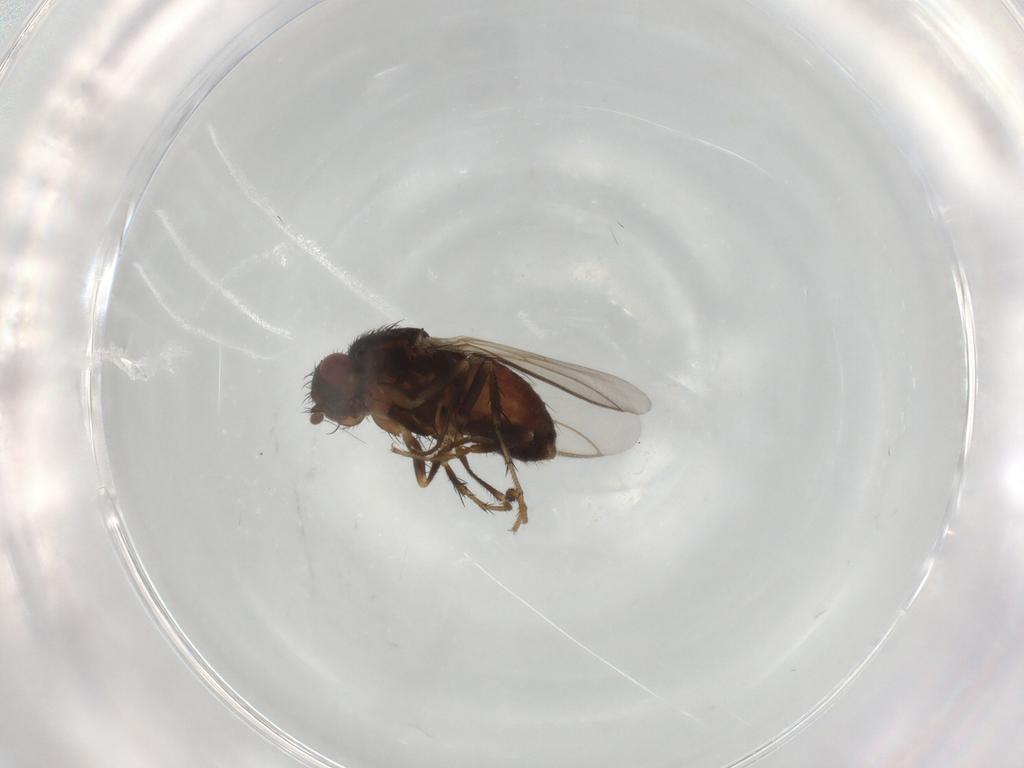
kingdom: Animalia
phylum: Arthropoda
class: Insecta
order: Diptera
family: Sphaeroceridae
